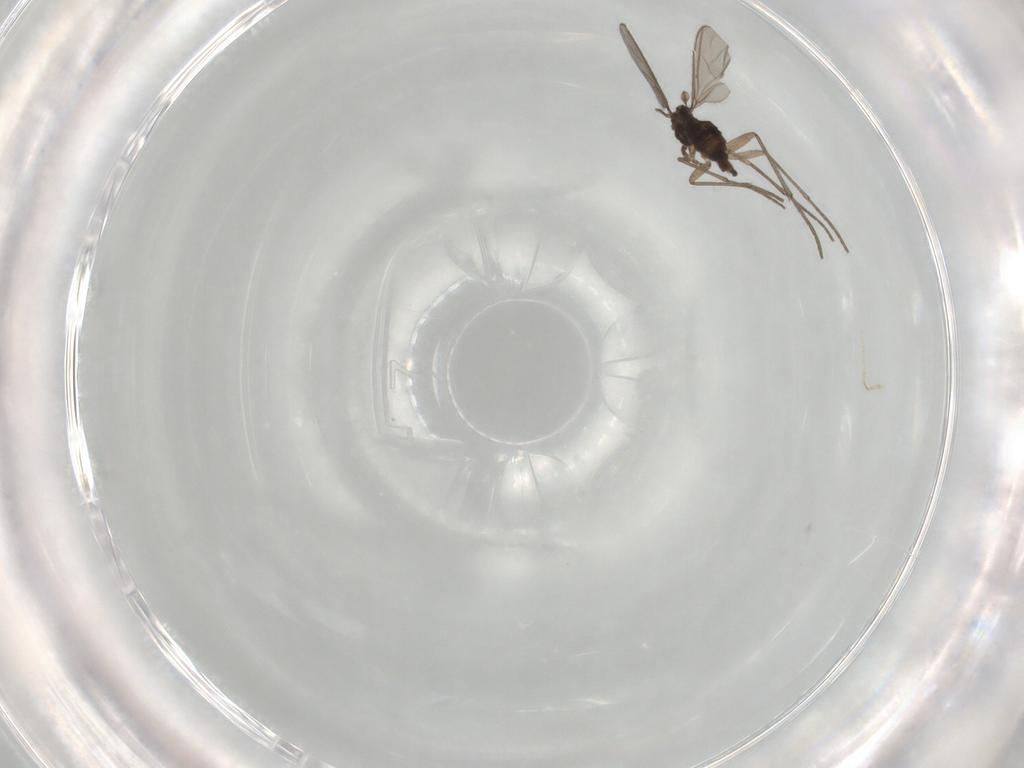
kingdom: Animalia
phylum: Arthropoda
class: Insecta
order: Diptera
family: Sciaridae
